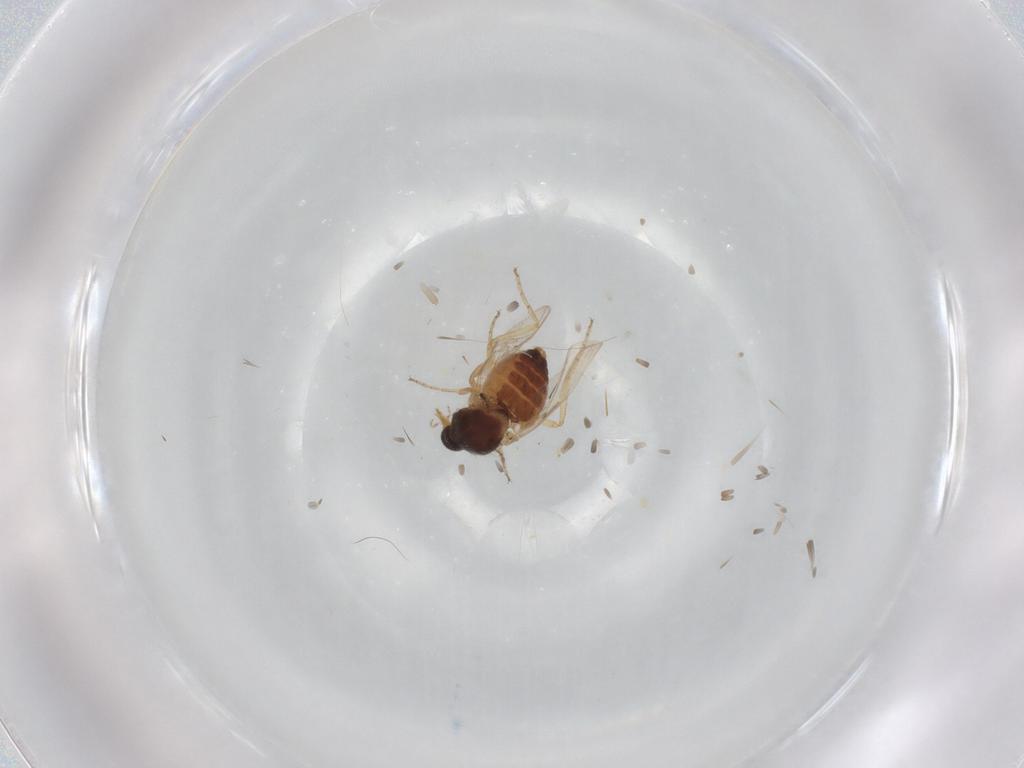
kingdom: Animalia
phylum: Arthropoda
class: Insecta
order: Diptera
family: Ceratopogonidae
